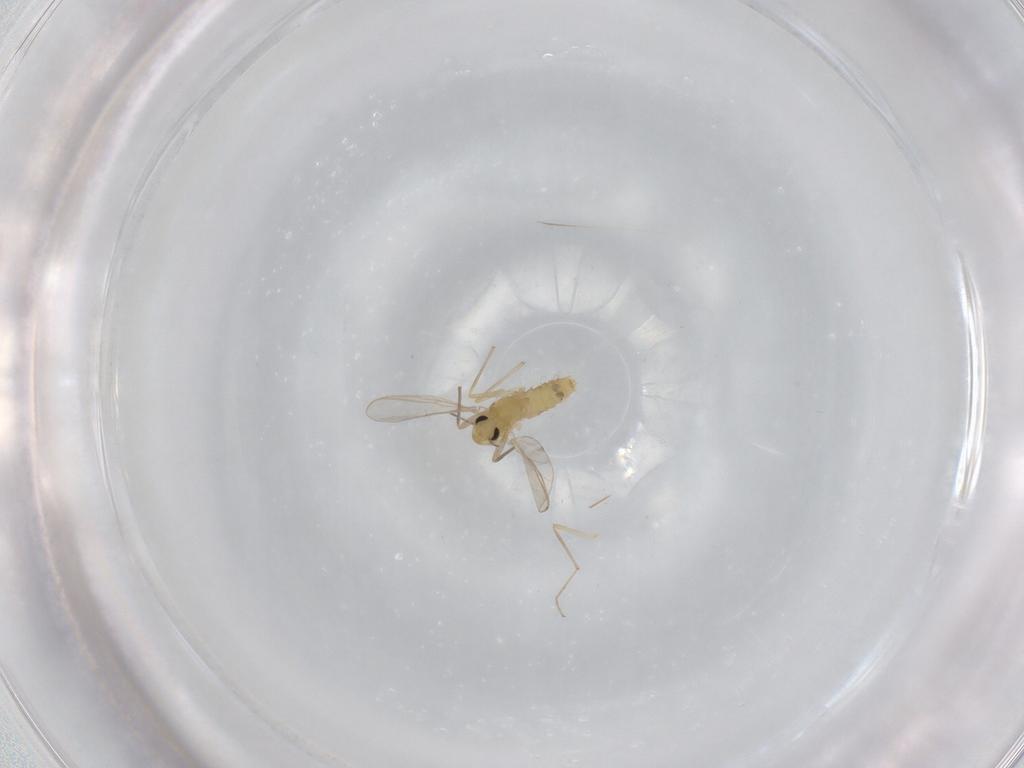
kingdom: Animalia
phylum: Arthropoda
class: Insecta
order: Diptera
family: Chironomidae
